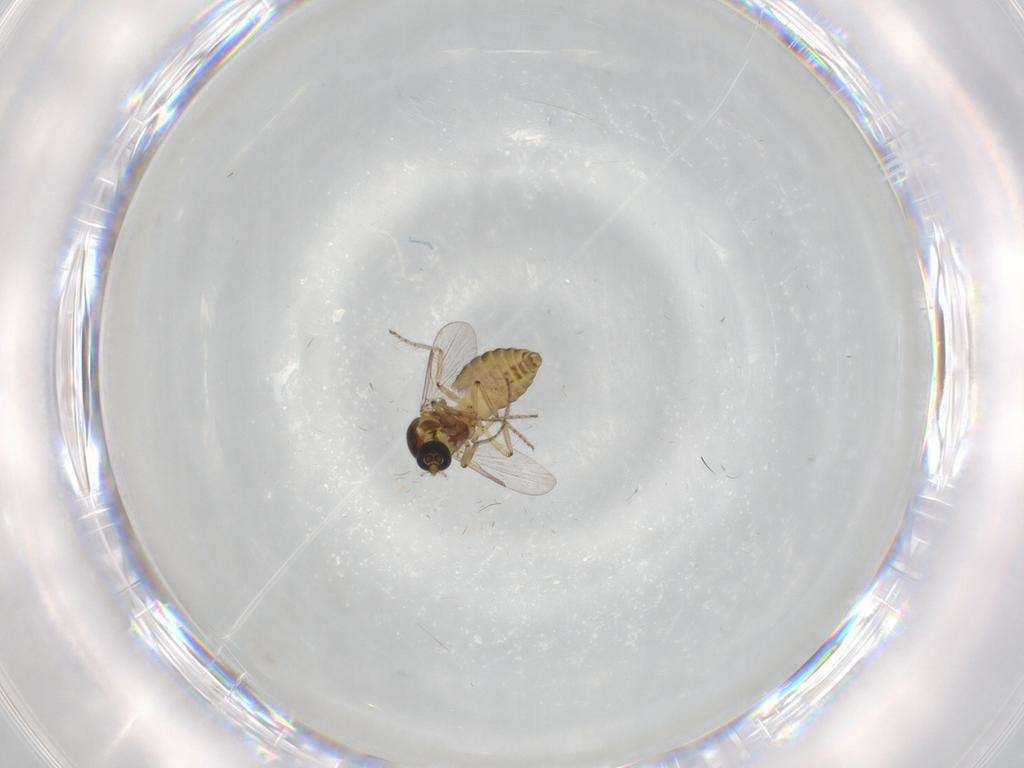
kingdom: Animalia
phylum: Arthropoda
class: Insecta
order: Diptera
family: Ceratopogonidae
